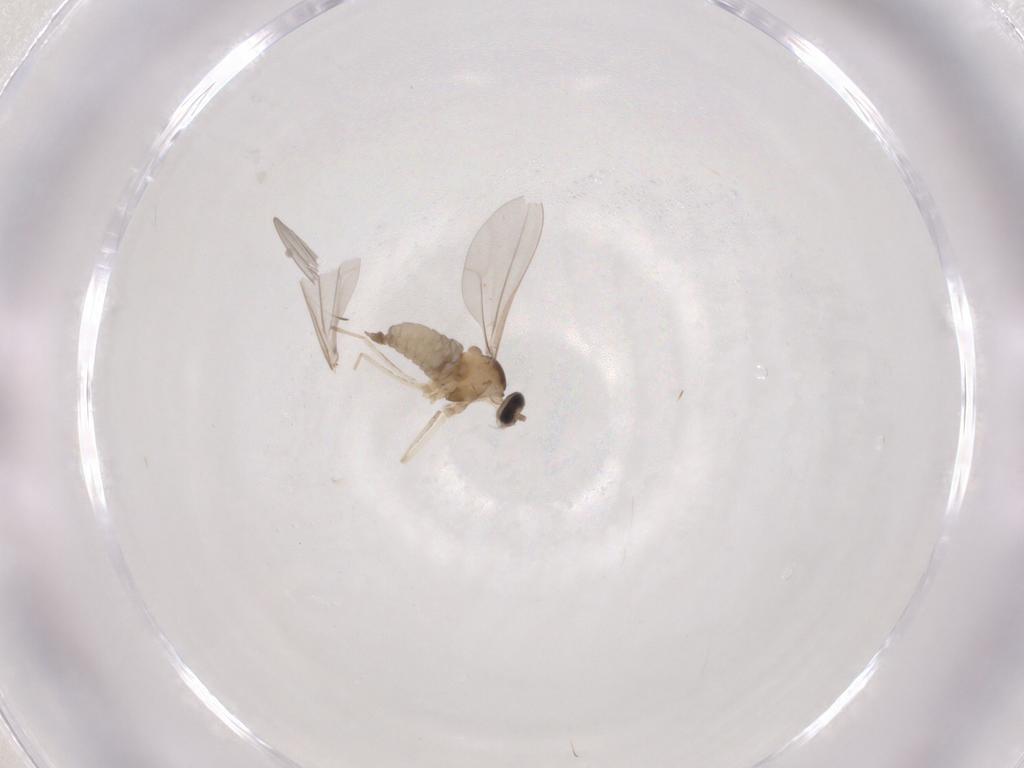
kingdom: Animalia
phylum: Arthropoda
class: Insecta
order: Diptera
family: Cecidomyiidae
